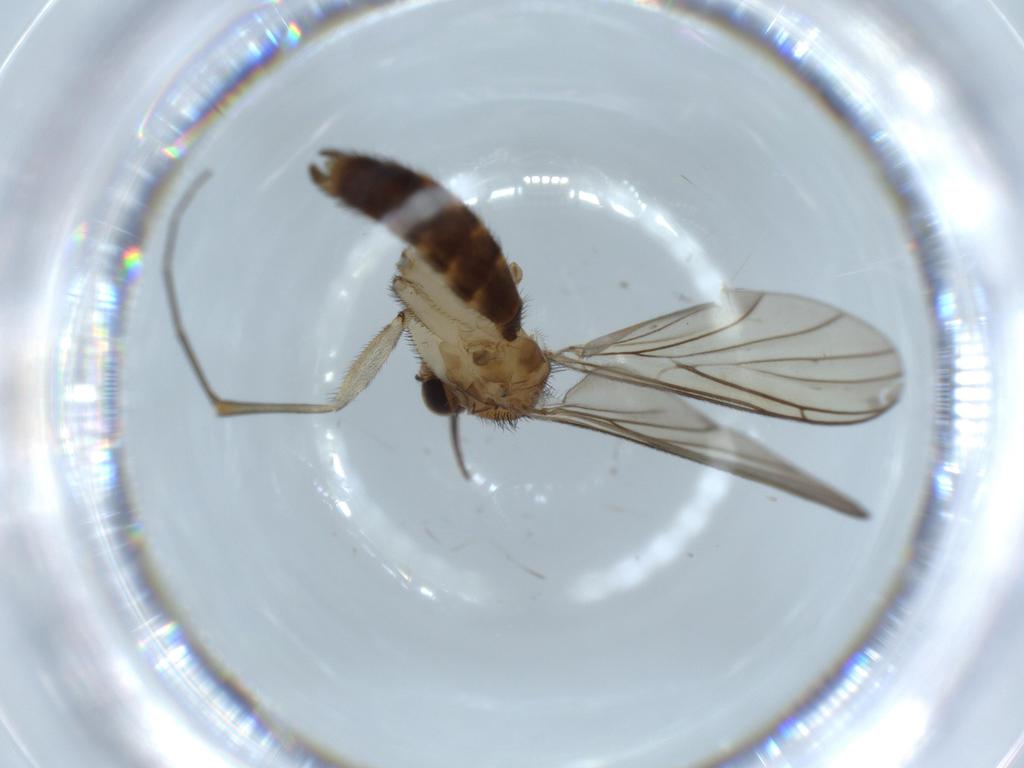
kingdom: Animalia
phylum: Arthropoda
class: Insecta
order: Diptera
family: Keroplatidae
